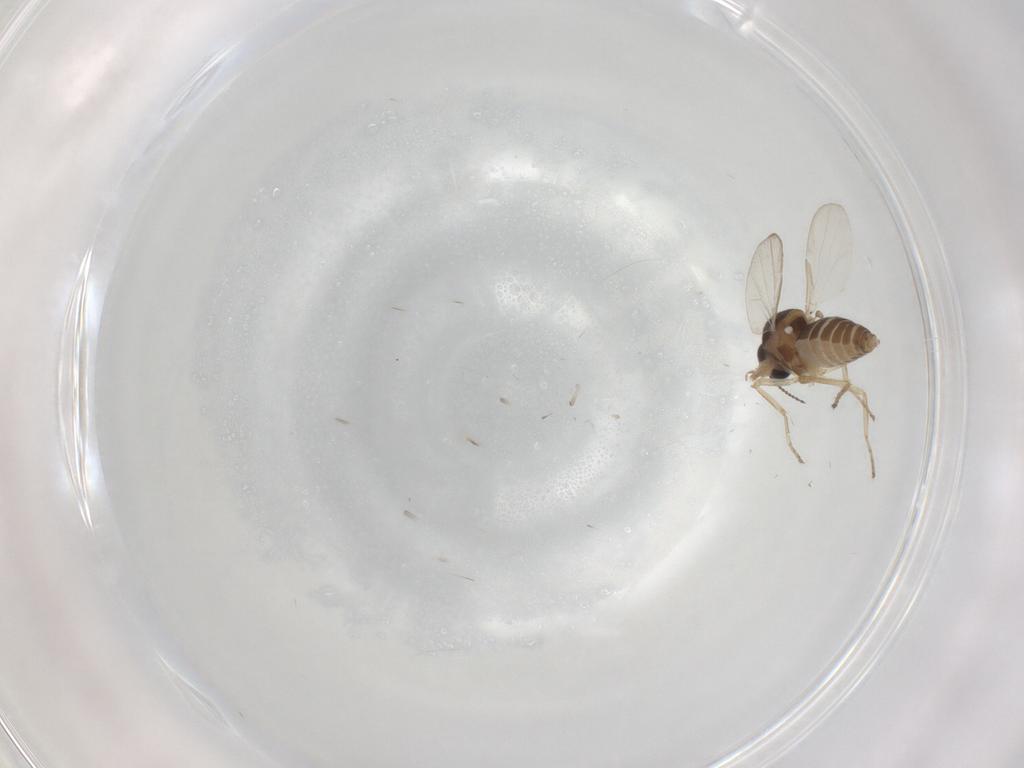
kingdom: Animalia
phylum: Arthropoda
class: Insecta
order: Diptera
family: Ceratopogonidae
